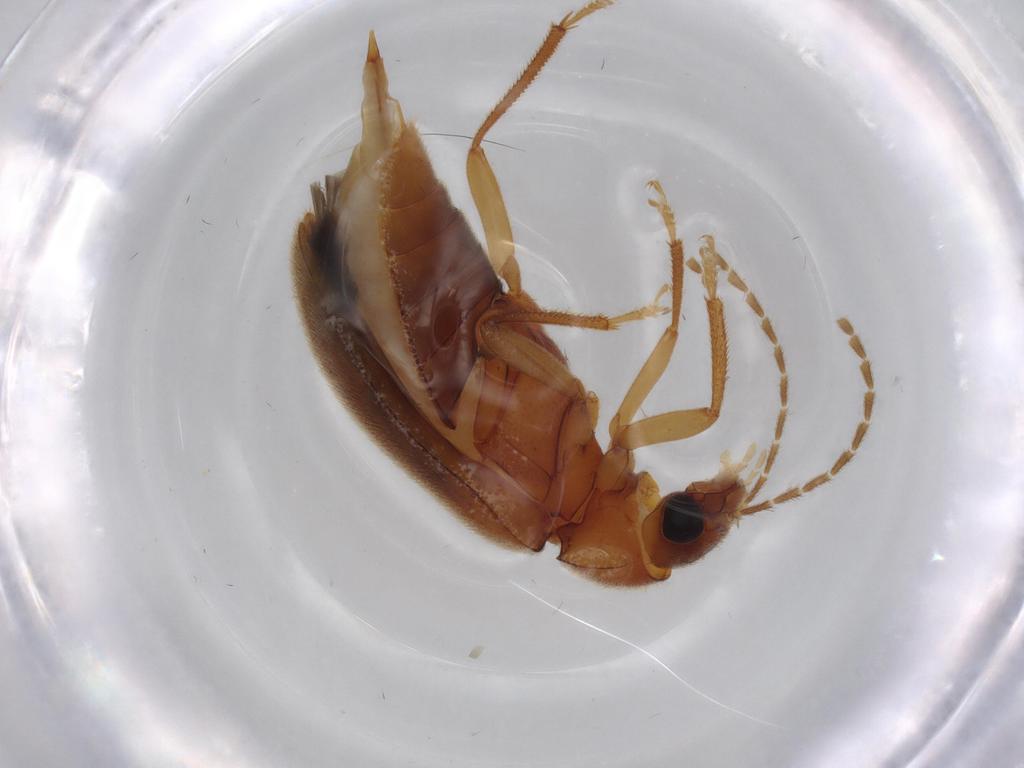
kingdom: Animalia
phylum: Arthropoda
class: Insecta
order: Coleoptera
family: Ptilodactylidae
